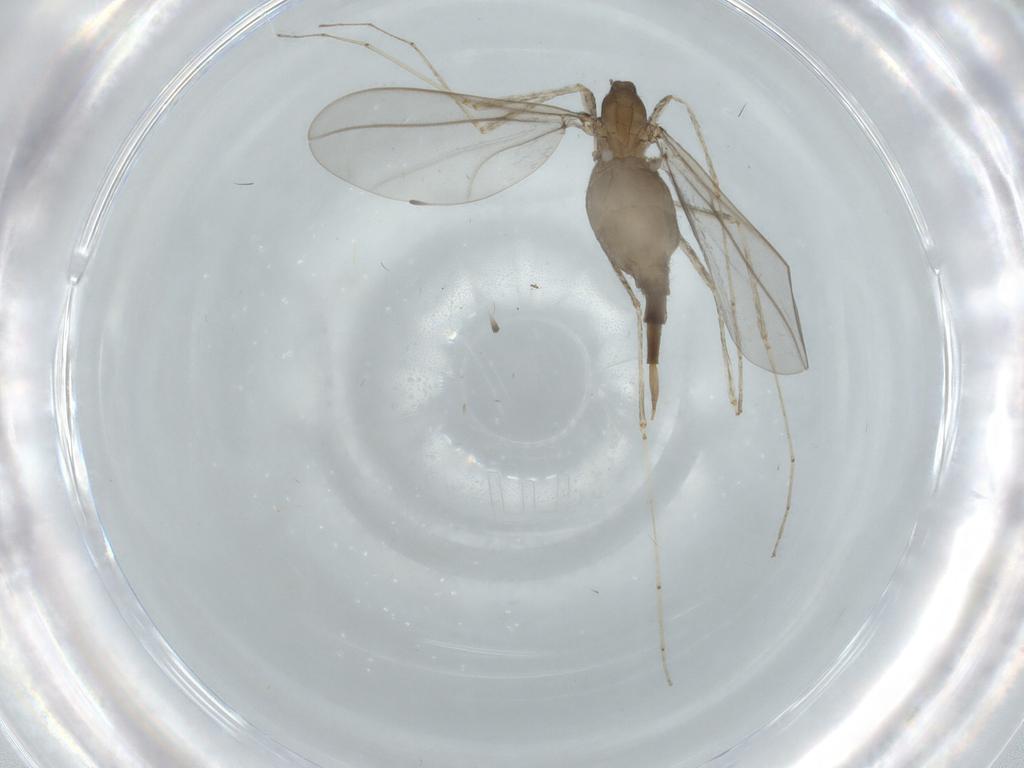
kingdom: Animalia
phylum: Arthropoda
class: Insecta
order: Diptera
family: Cecidomyiidae
